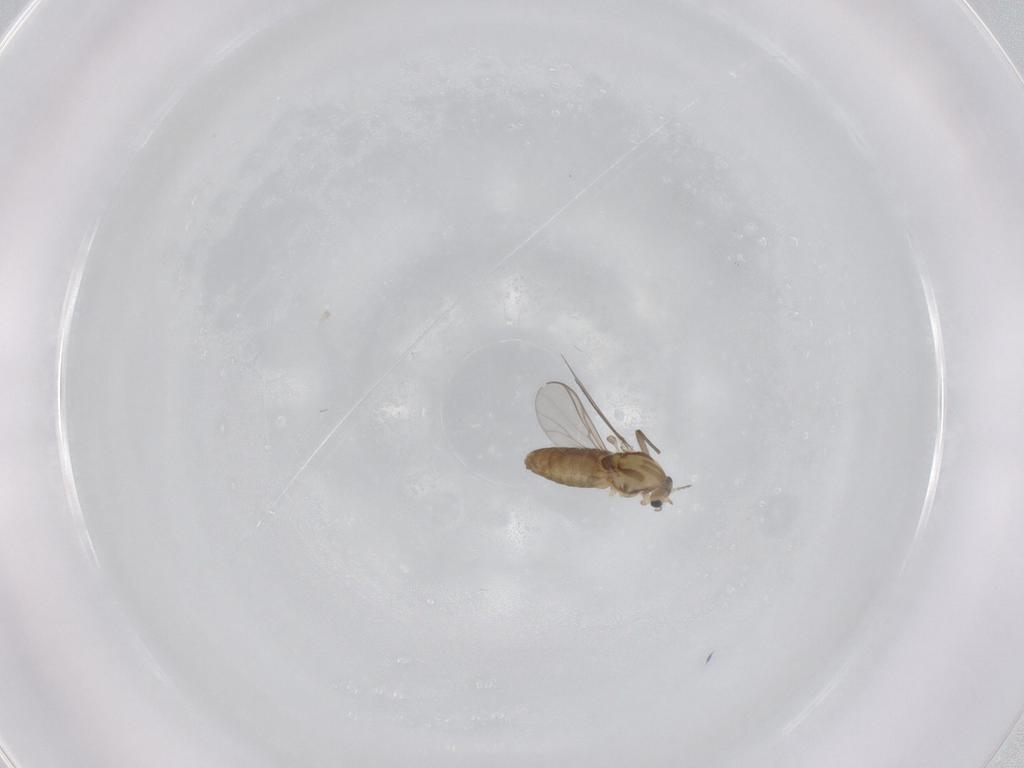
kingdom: Animalia
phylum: Arthropoda
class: Insecta
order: Diptera
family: Chironomidae
